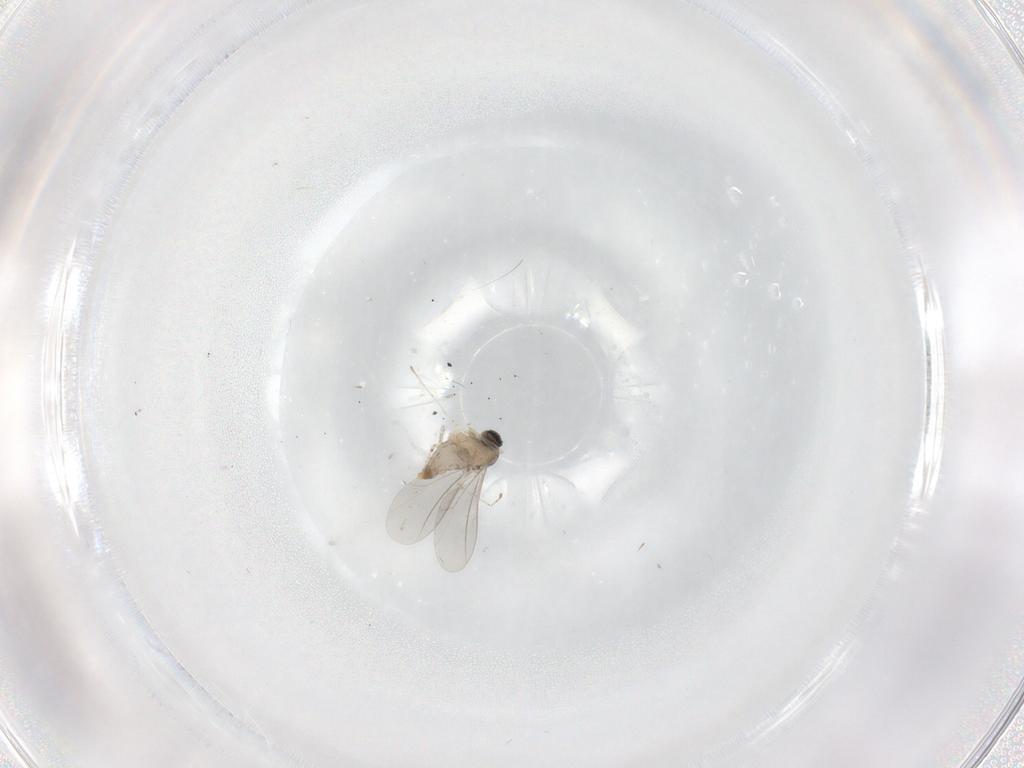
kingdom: Animalia
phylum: Arthropoda
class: Insecta
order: Diptera
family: Cecidomyiidae
